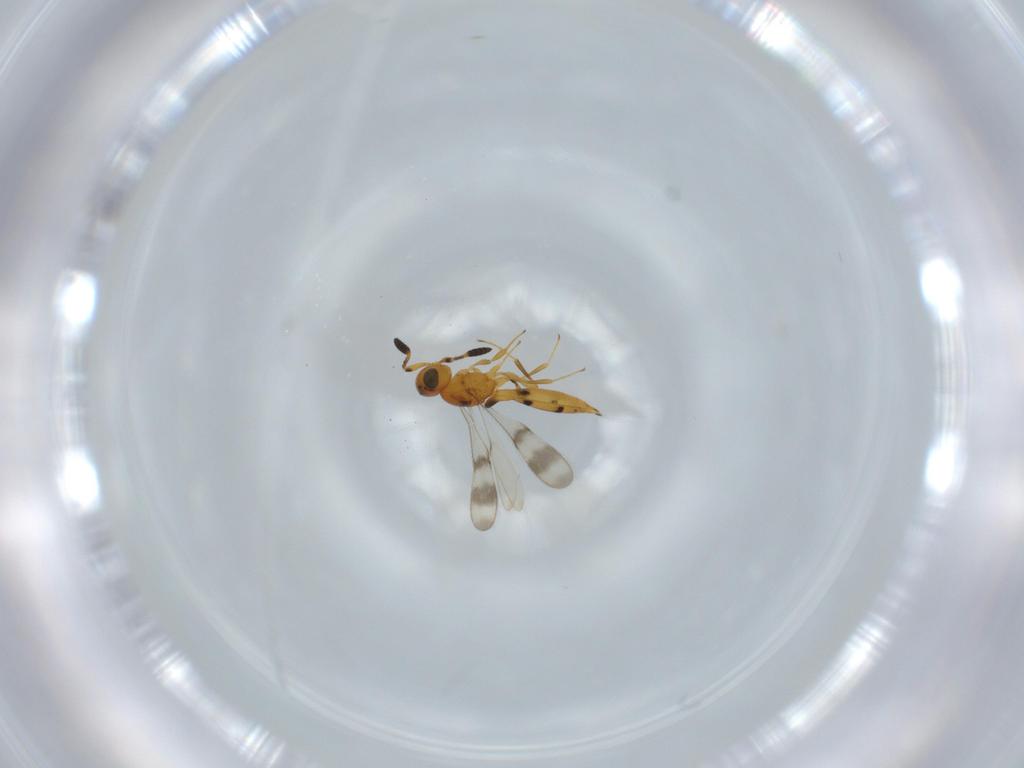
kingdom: Animalia
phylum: Arthropoda
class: Insecta
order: Hymenoptera
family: Scelionidae
